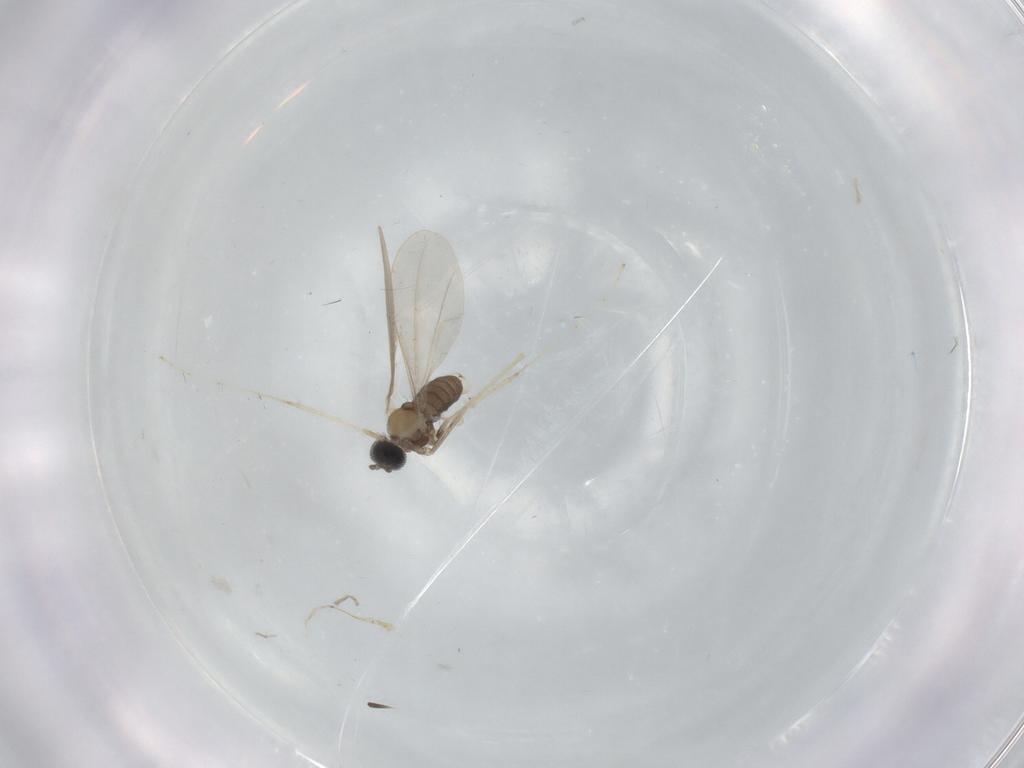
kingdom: Animalia
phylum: Arthropoda
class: Insecta
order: Diptera
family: Cecidomyiidae
